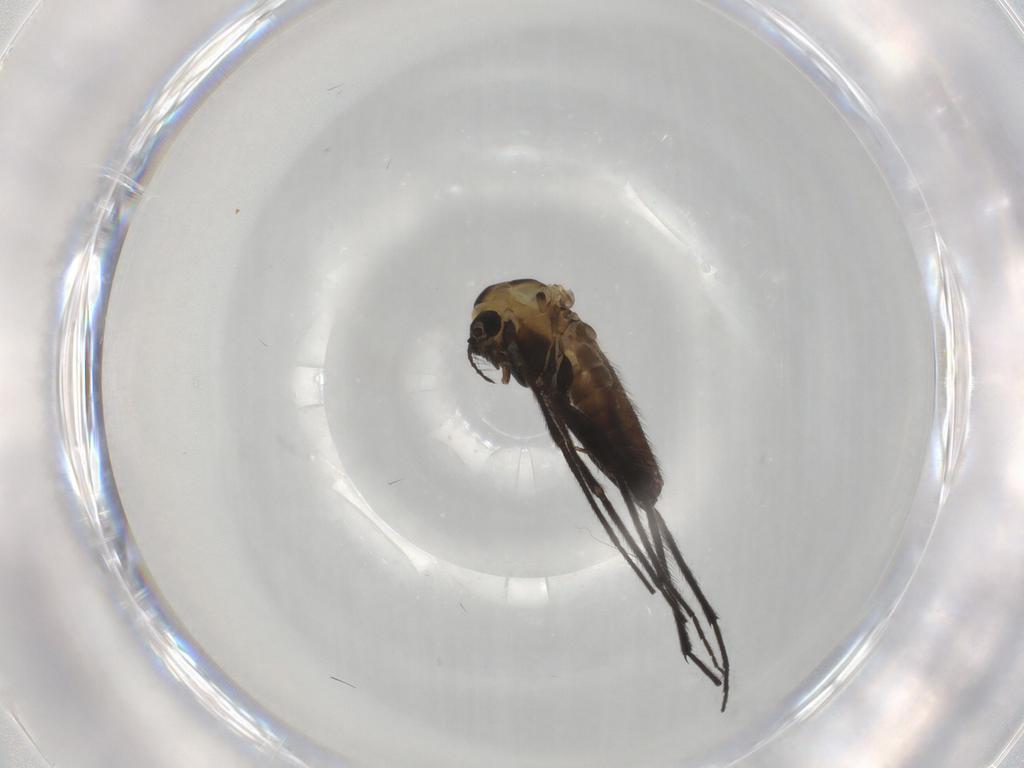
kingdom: Animalia
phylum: Arthropoda
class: Insecta
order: Diptera
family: Chironomidae
